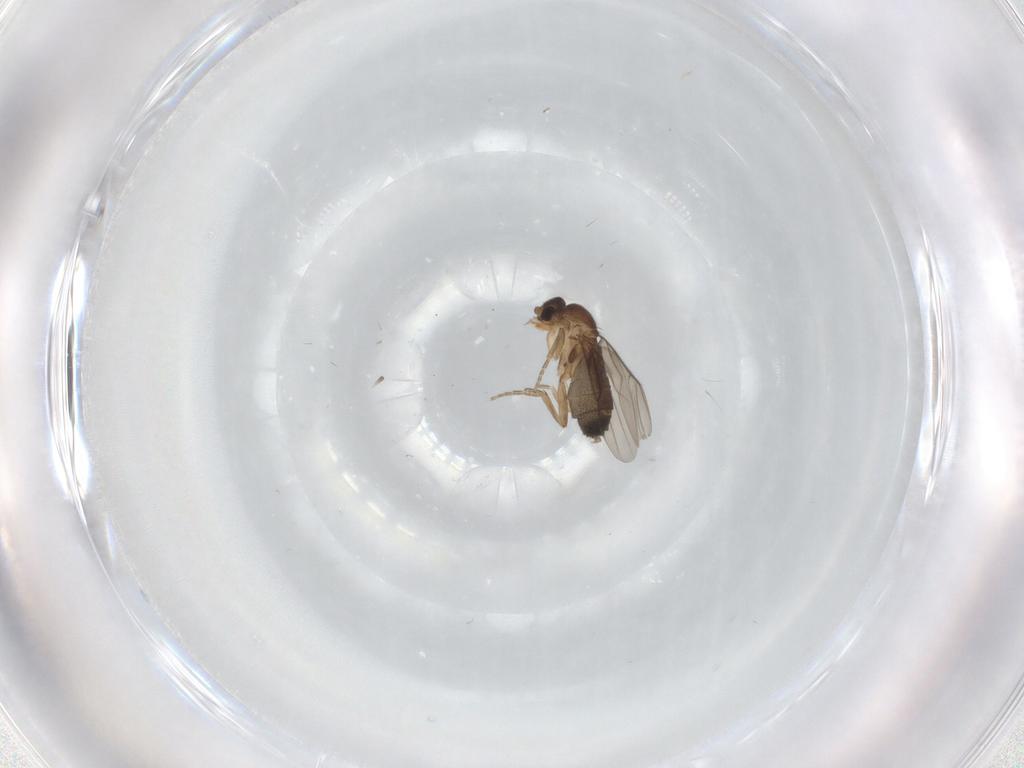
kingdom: Animalia
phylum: Arthropoda
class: Insecta
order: Diptera
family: Phoridae
